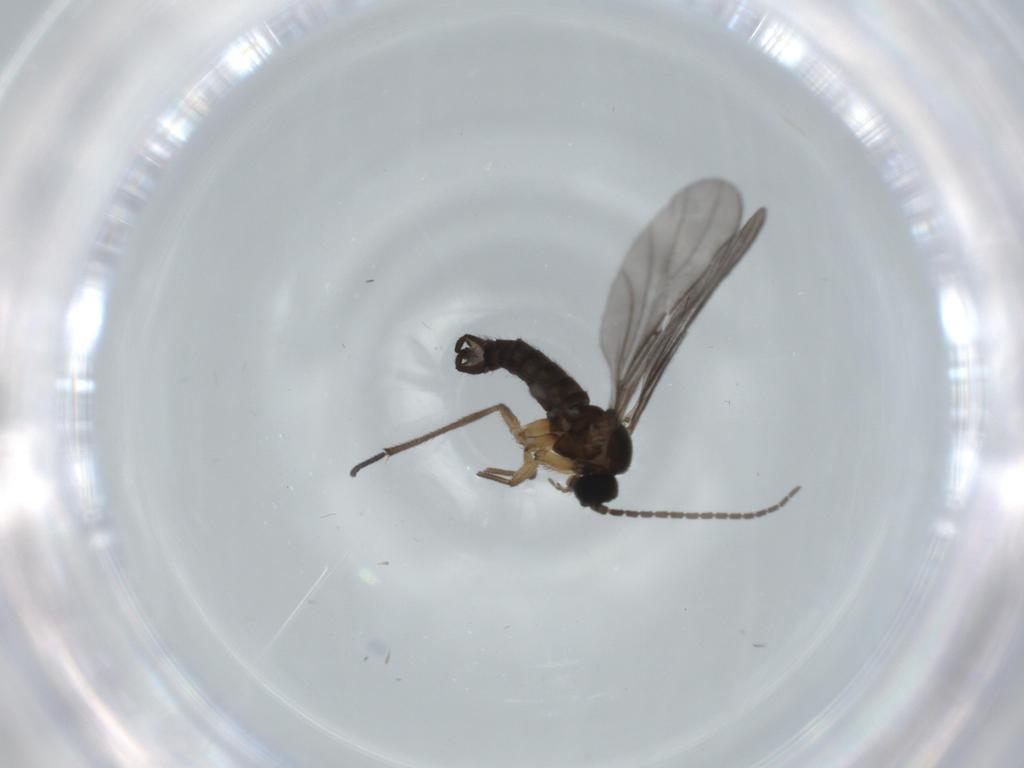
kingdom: Animalia
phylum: Arthropoda
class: Insecta
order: Diptera
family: Sciaridae
